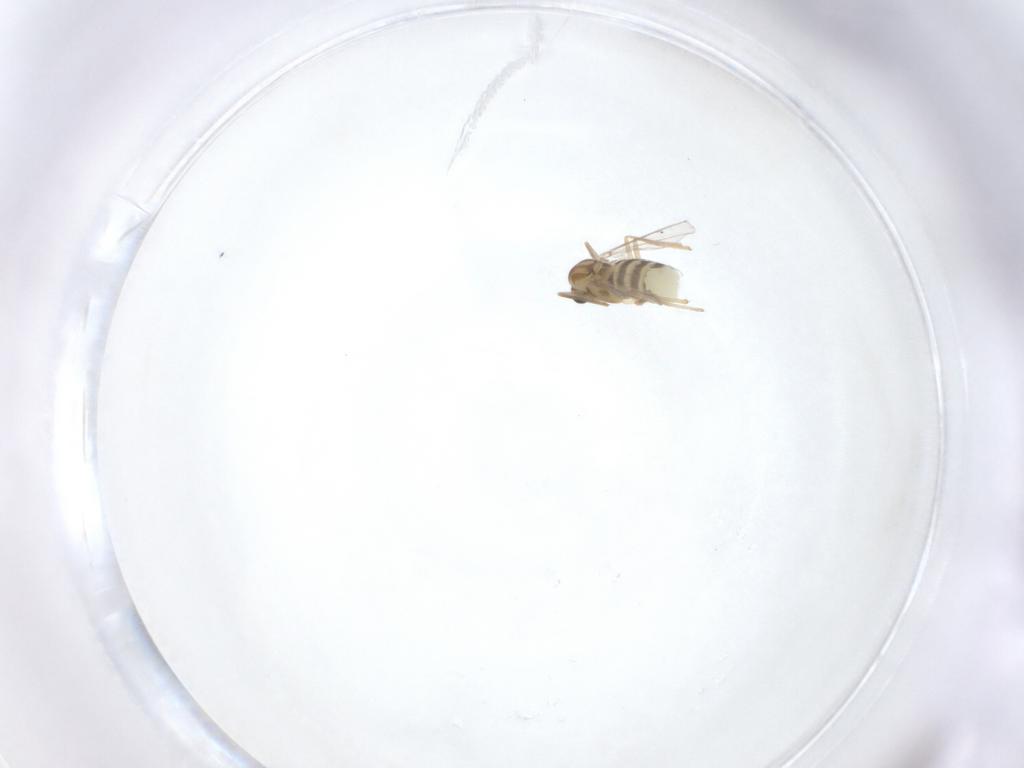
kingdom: Animalia
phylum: Arthropoda
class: Insecta
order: Diptera
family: Chironomidae
